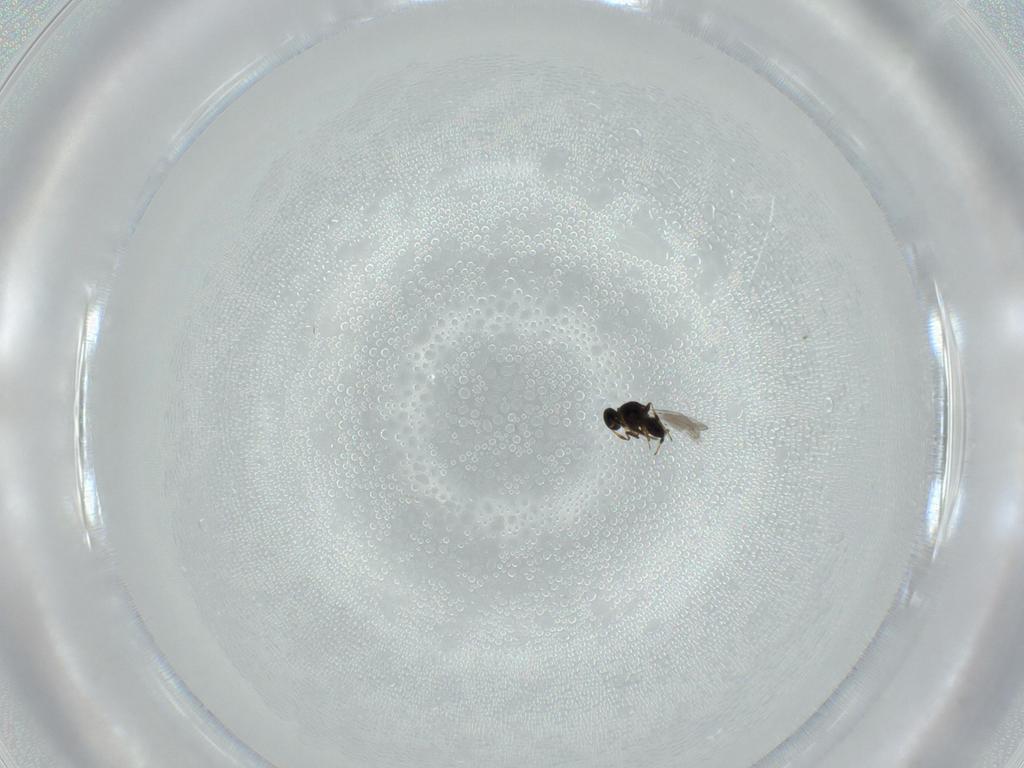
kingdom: Animalia
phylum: Arthropoda
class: Insecta
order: Hymenoptera
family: Platygastridae
